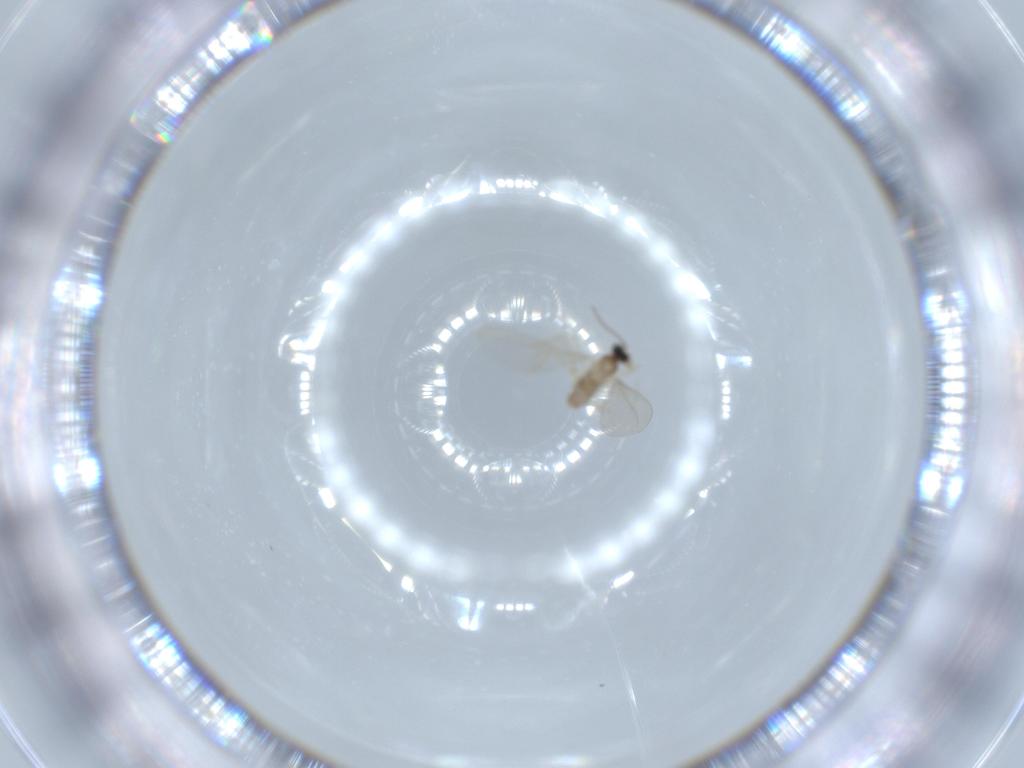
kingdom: Animalia
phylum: Arthropoda
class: Insecta
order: Diptera
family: Cecidomyiidae
